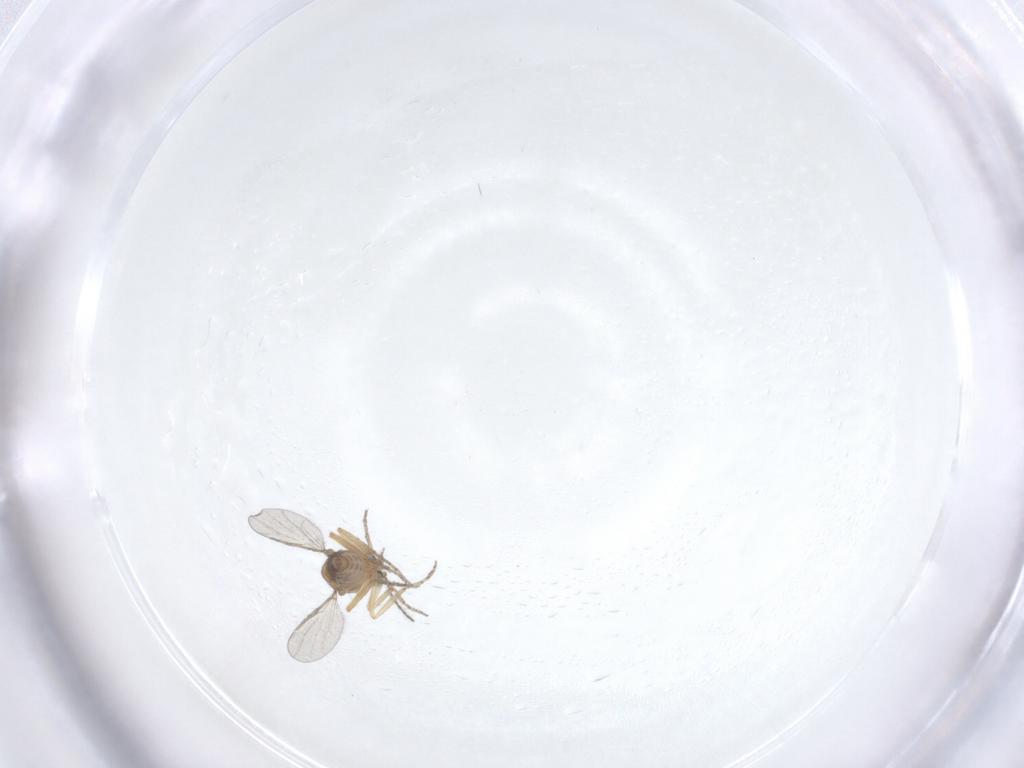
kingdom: Animalia
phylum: Arthropoda
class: Insecta
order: Diptera
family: Ceratopogonidae
